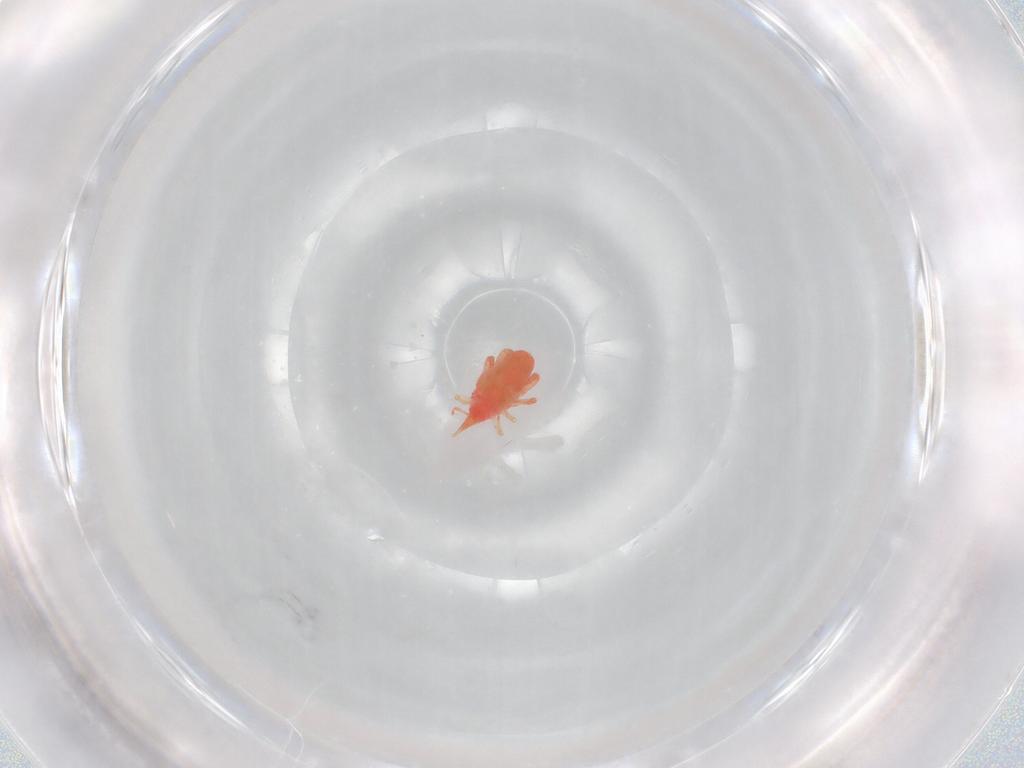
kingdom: Animalia
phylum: Arthropoda
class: Arachnida
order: Trombidiformes
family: Bdellidae
